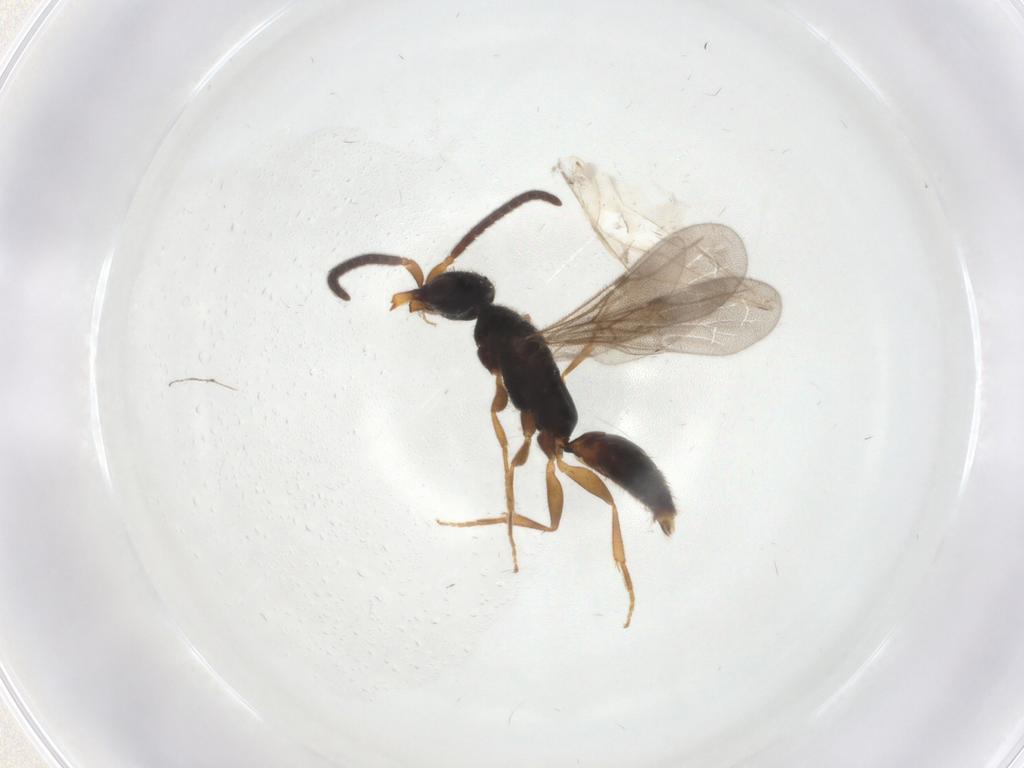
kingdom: Animalia
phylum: Arthropoda
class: Insecta
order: Hymenoptera
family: Bethylidae
